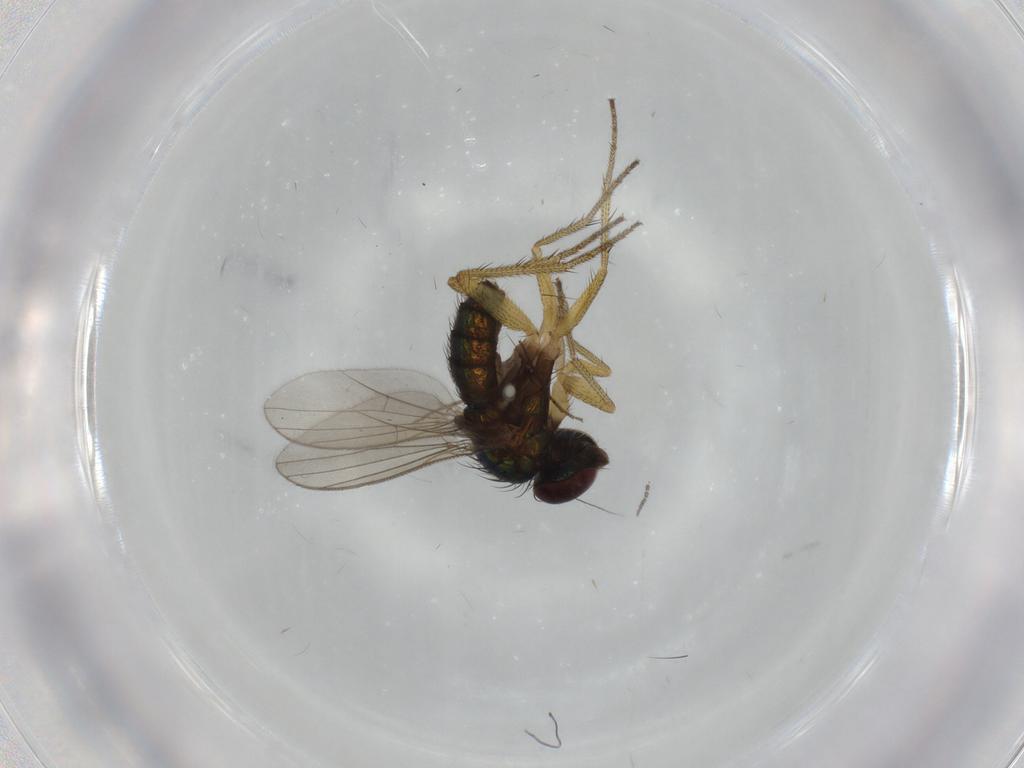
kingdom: Animalia
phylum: Arthropoda
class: Insecta
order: Diptera
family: Sciaridae
